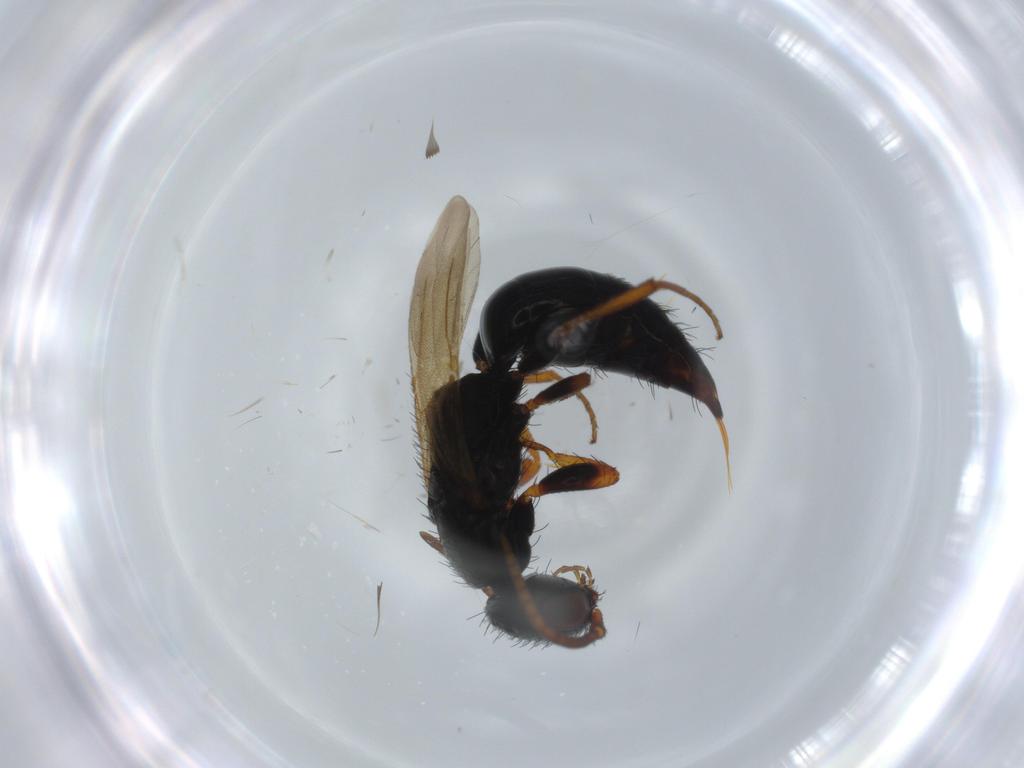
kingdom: Animalia
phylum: Arthropoda
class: Insecta
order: Hymenoptera
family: Bethylidae
